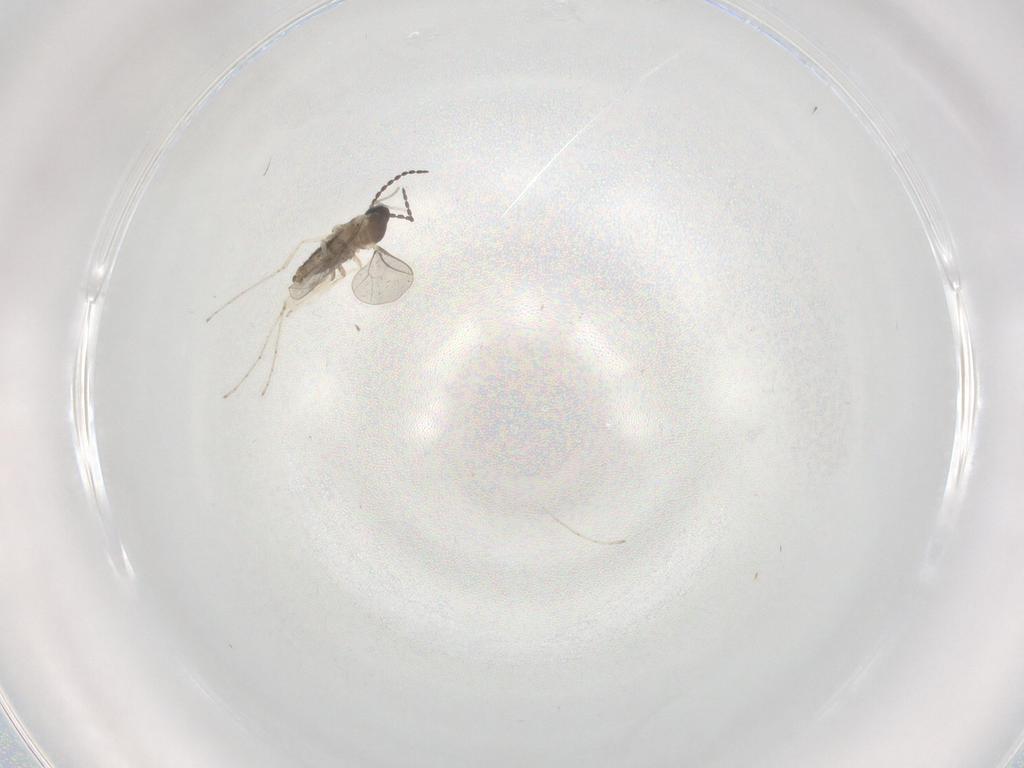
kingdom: Animalia
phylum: Arthropoda
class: Insecta
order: Diptera
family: Cecidomyiidae
